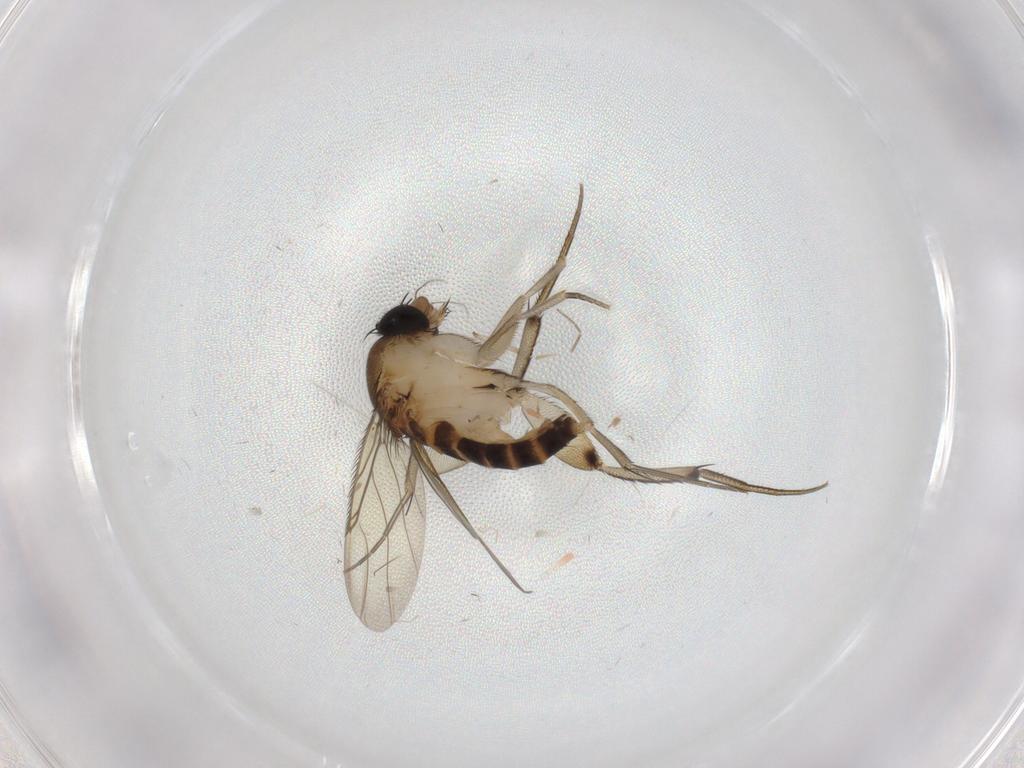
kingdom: Animalia
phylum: Arthropoda
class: Insecta
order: Diptera
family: Phoridae
